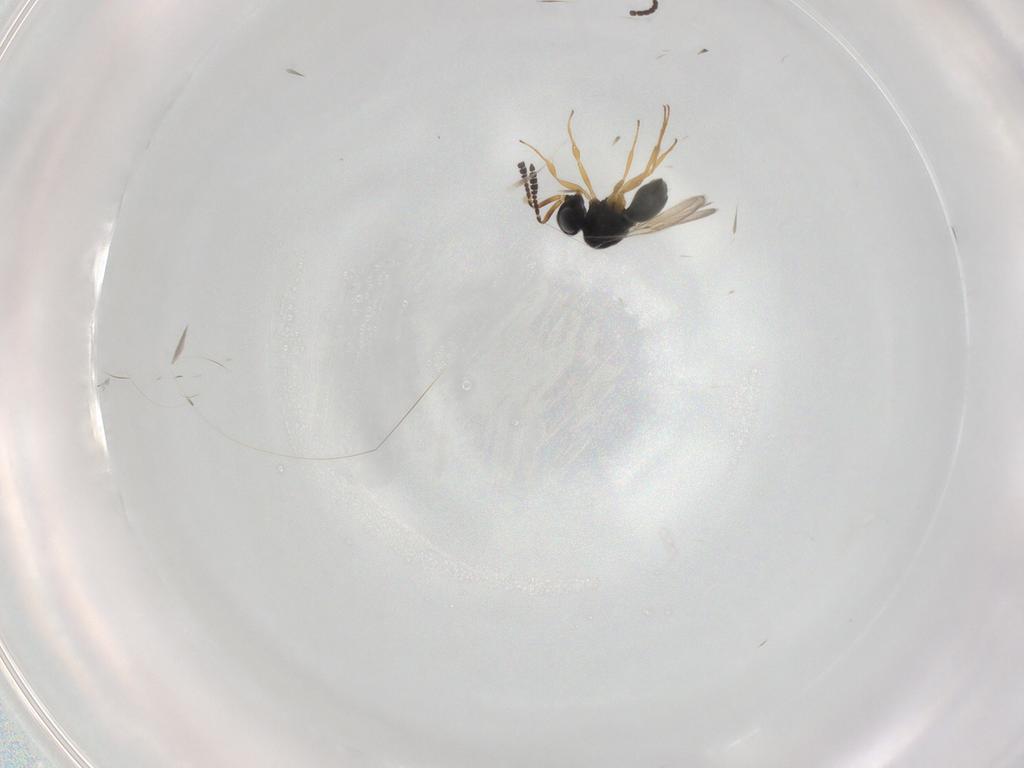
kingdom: Animalia
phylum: Arthropoda
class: Insecta
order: Hymenoptera
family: Scelionidae
